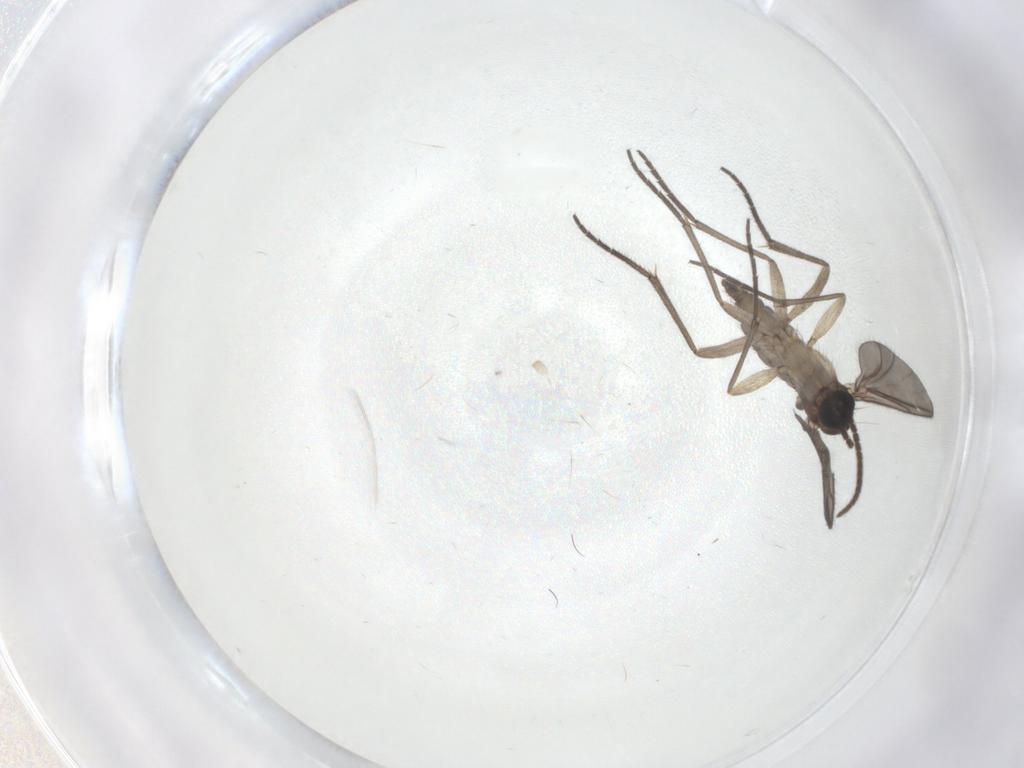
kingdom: Animalia
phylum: Arthropoda
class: Insecta
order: Diptera
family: Sciaridae
